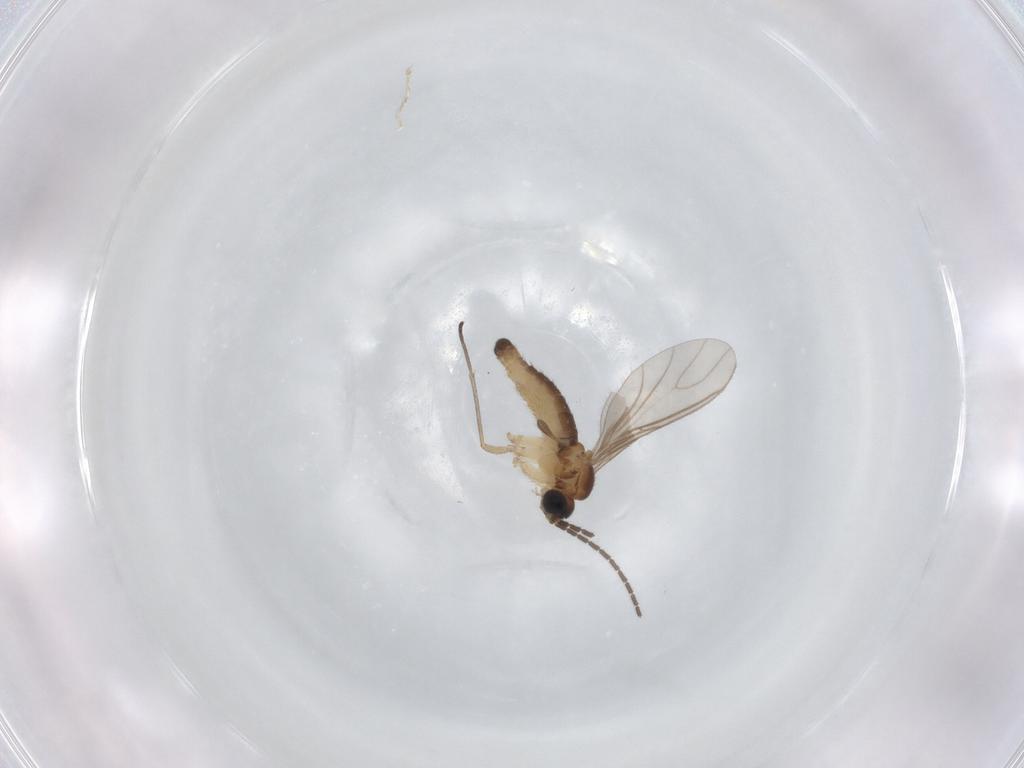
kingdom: Animalia
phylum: Arthropoda
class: Insecta
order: Diptera
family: Sciaridae
